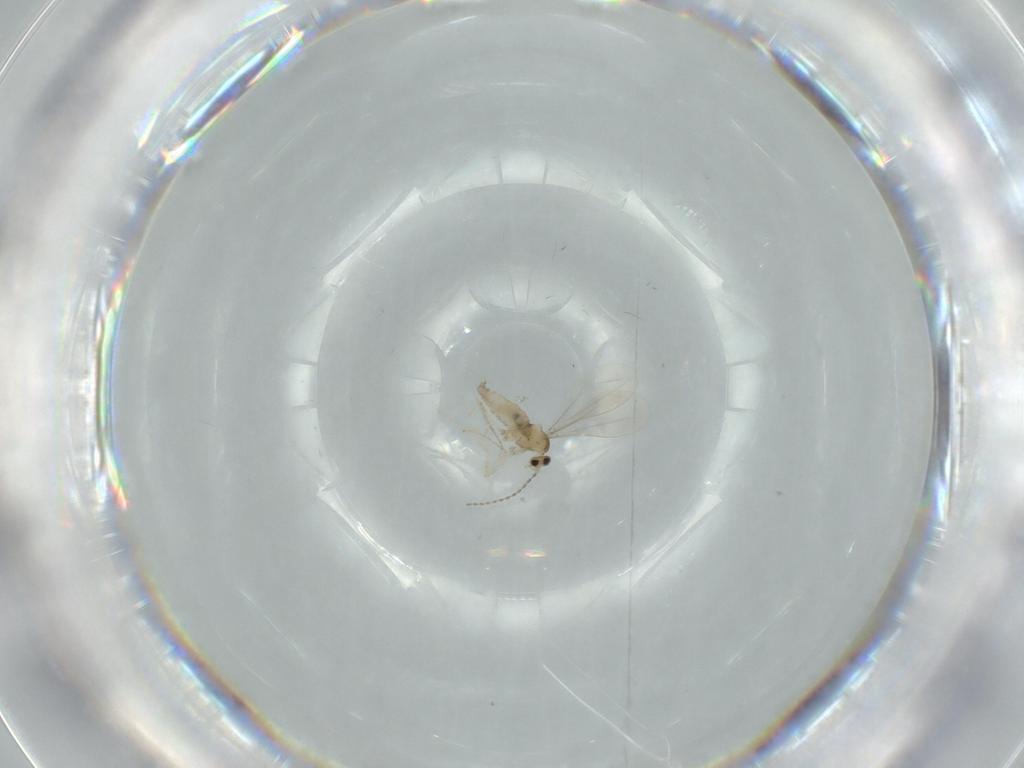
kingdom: Animalia
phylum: Arthropoda
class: Insecta
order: Diptera
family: Cecidomyiidae
